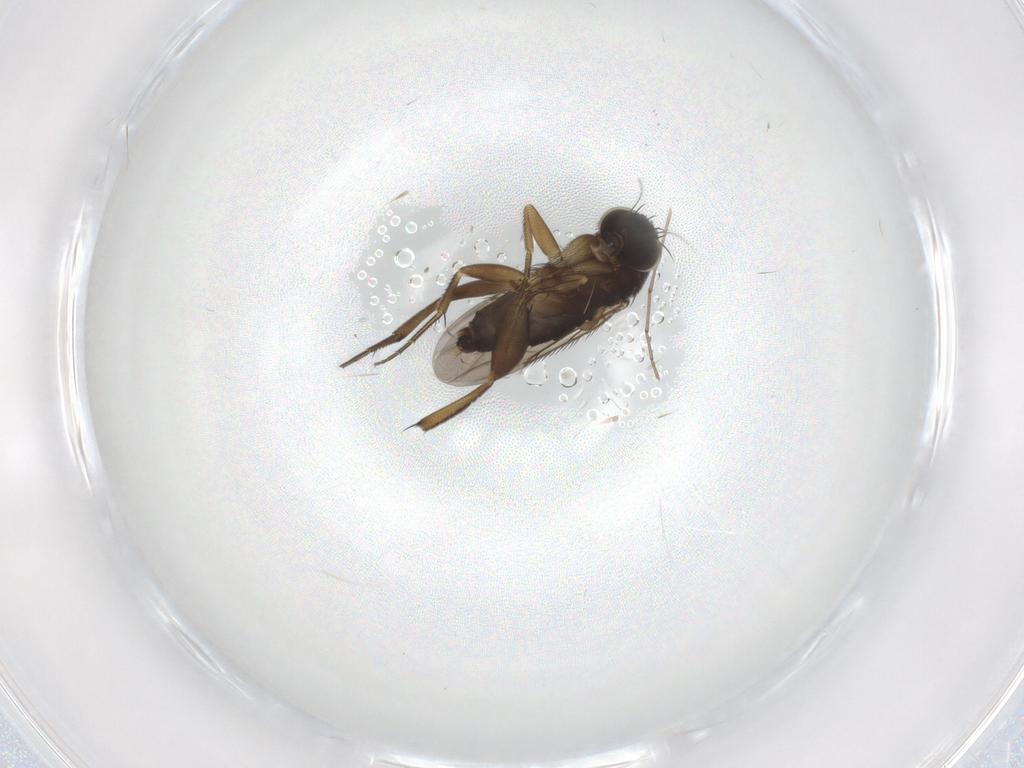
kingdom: Animalia
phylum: Arthropoda
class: Insecta
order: Diptera
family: Phoridae
